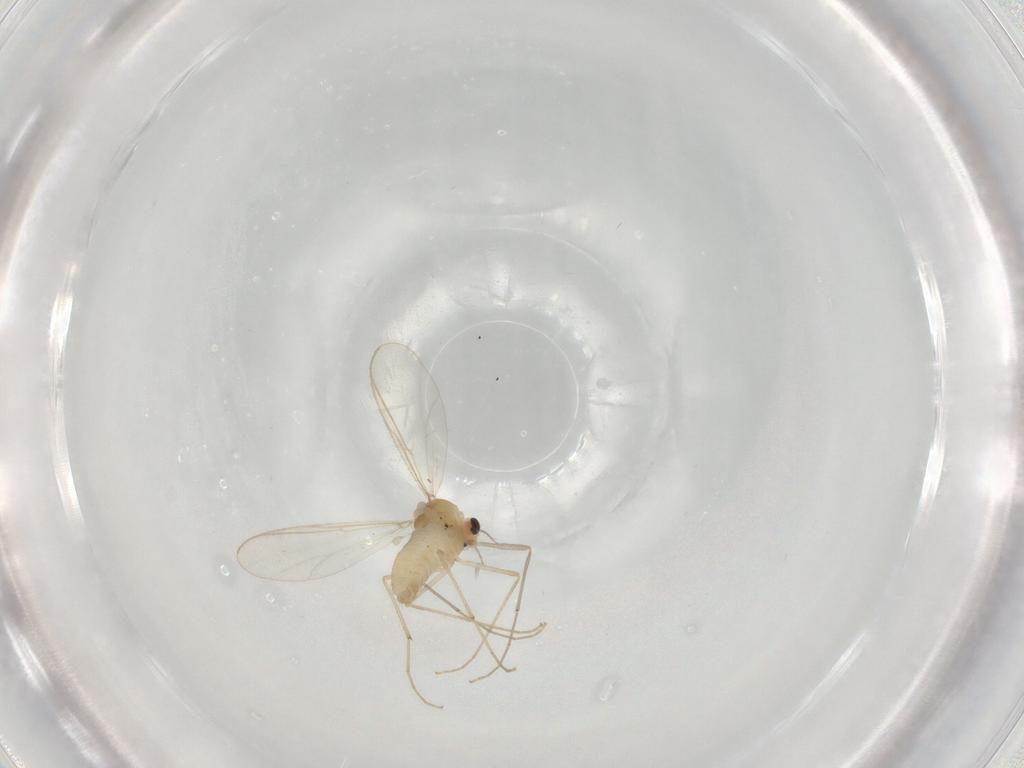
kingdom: Animalia
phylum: Arthropoda
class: Insecta
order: Diptera
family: Chironomidae
